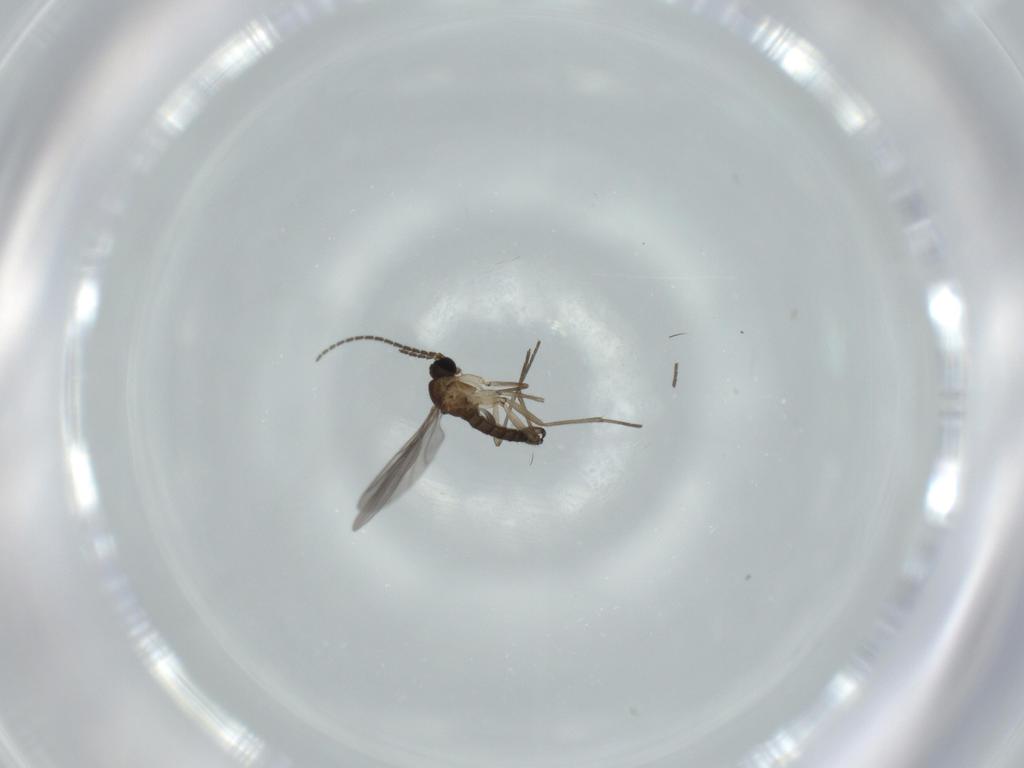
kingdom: Animalia
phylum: Arthropoda
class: Insecta
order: Diptera
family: Sciaridae
